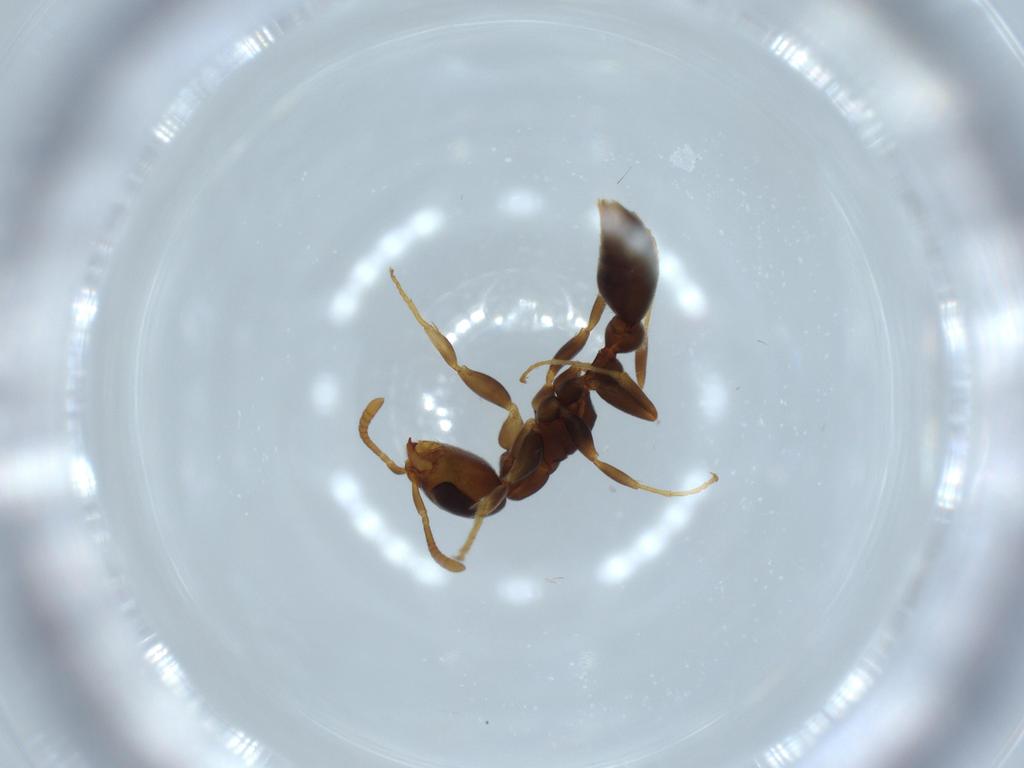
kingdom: Animalia
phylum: Arthropoda
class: Insecta
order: Hymenoptera
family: Formicidae
